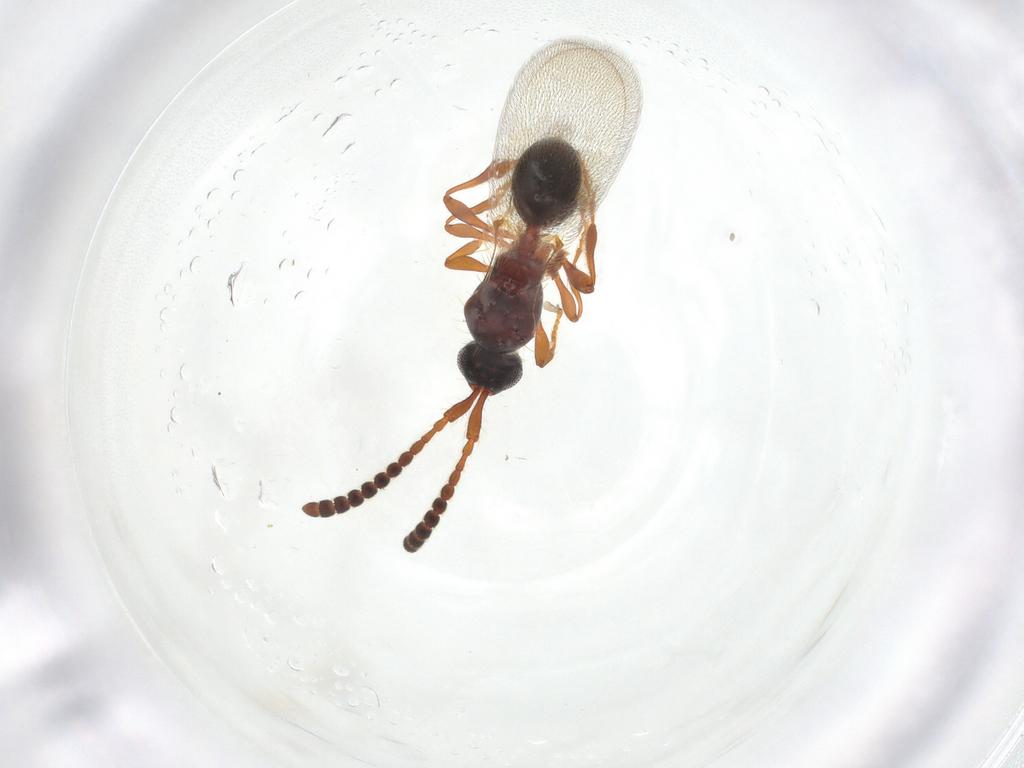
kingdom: Animalia
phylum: Arthropoda
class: Insecta
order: Hymenoptera
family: Diapriidae
